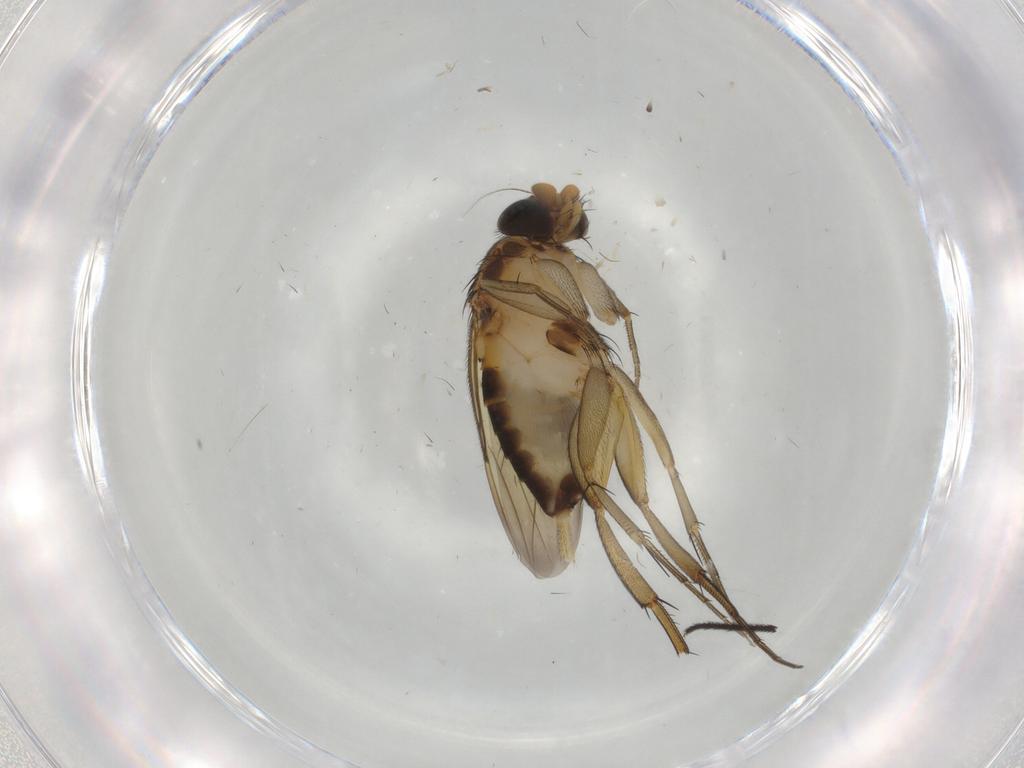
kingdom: Animalia
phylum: Arthropoda
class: Insecta
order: Diptera
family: Phoridae
